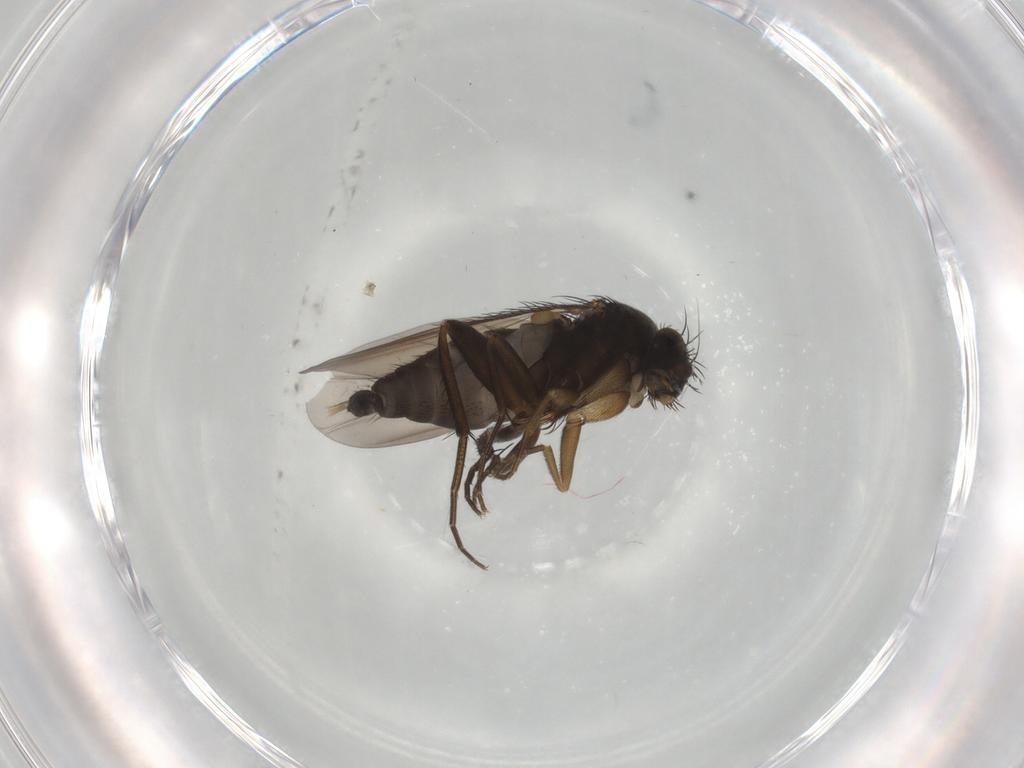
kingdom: Animalia
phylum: Arthropoda
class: Insecta
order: Diptera
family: Phoridae
